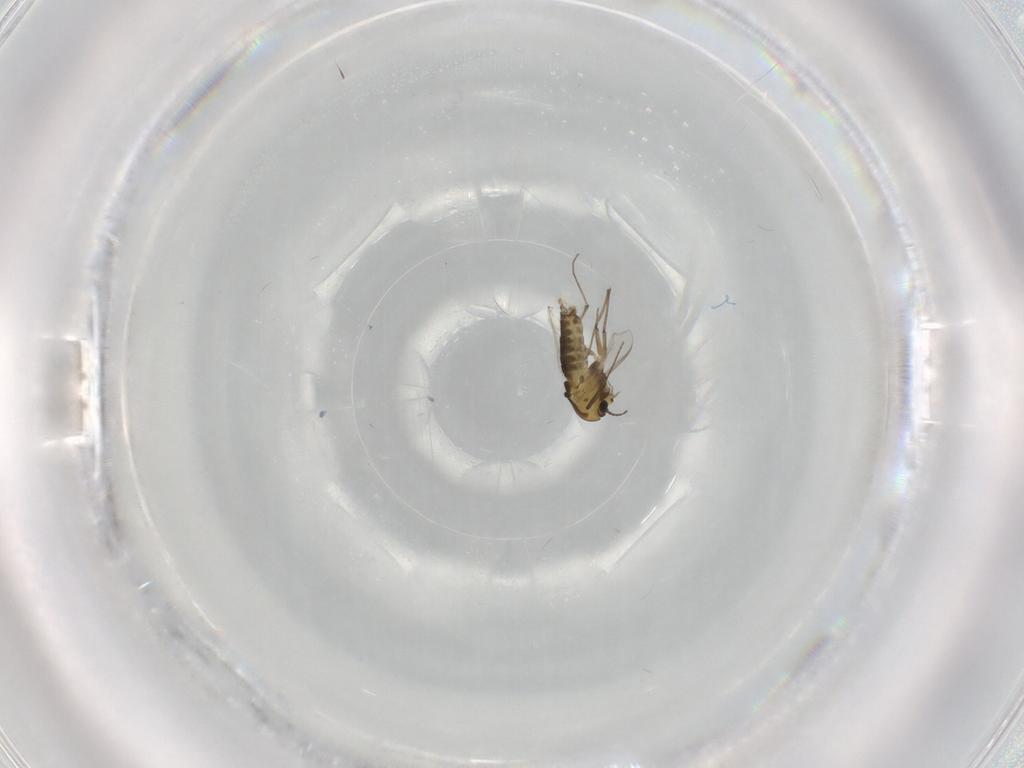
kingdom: Animalia
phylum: Arthropoda
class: Insecta
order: Diptera
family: Chironomidae
